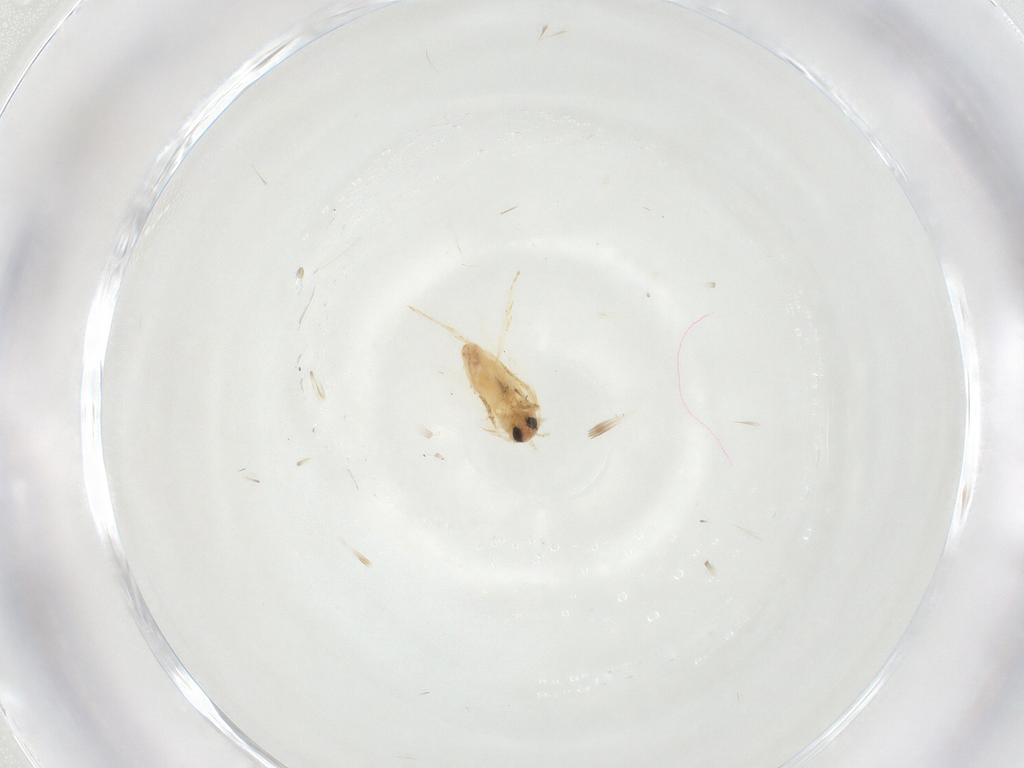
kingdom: Animalia
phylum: Arthropoda
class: Insecta
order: Lepidoptera
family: Crambidae
